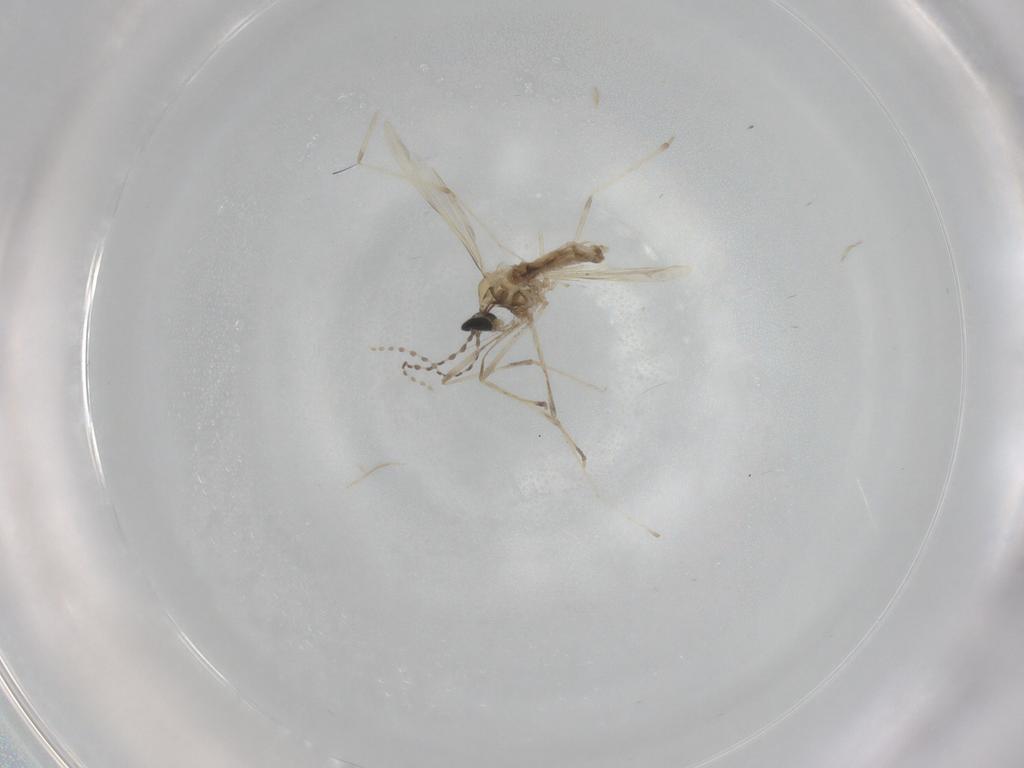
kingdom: Animalia
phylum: Arthropoda
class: Insecta
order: Diptera
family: Cecidomyiidae
